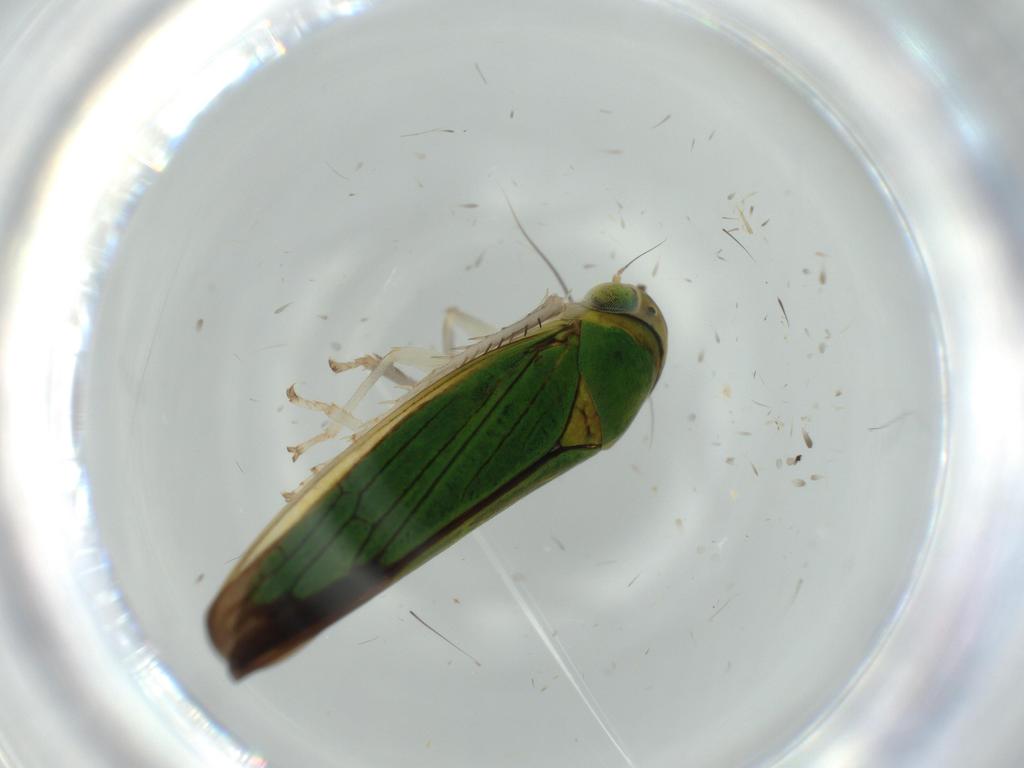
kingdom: Animalia
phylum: Arthropoda
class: Insecta
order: Hemiptera
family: Cicadellidae
